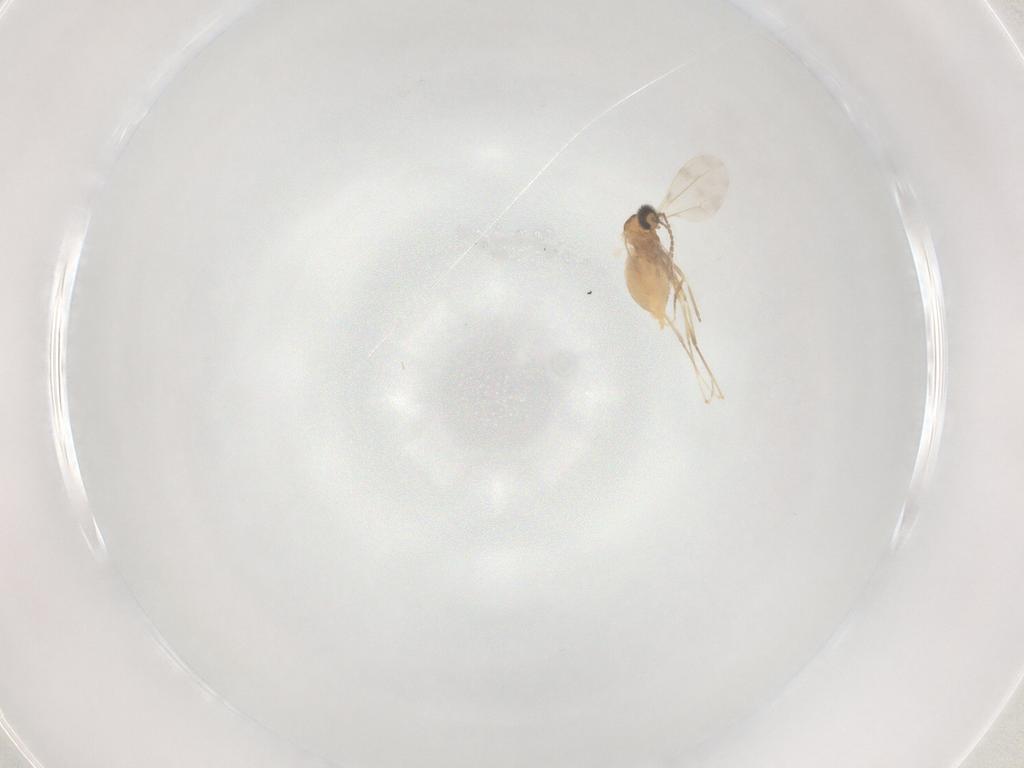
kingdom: Animalia
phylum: Arthropoda
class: Insecta
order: Diptera
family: Cecidomyiidae
